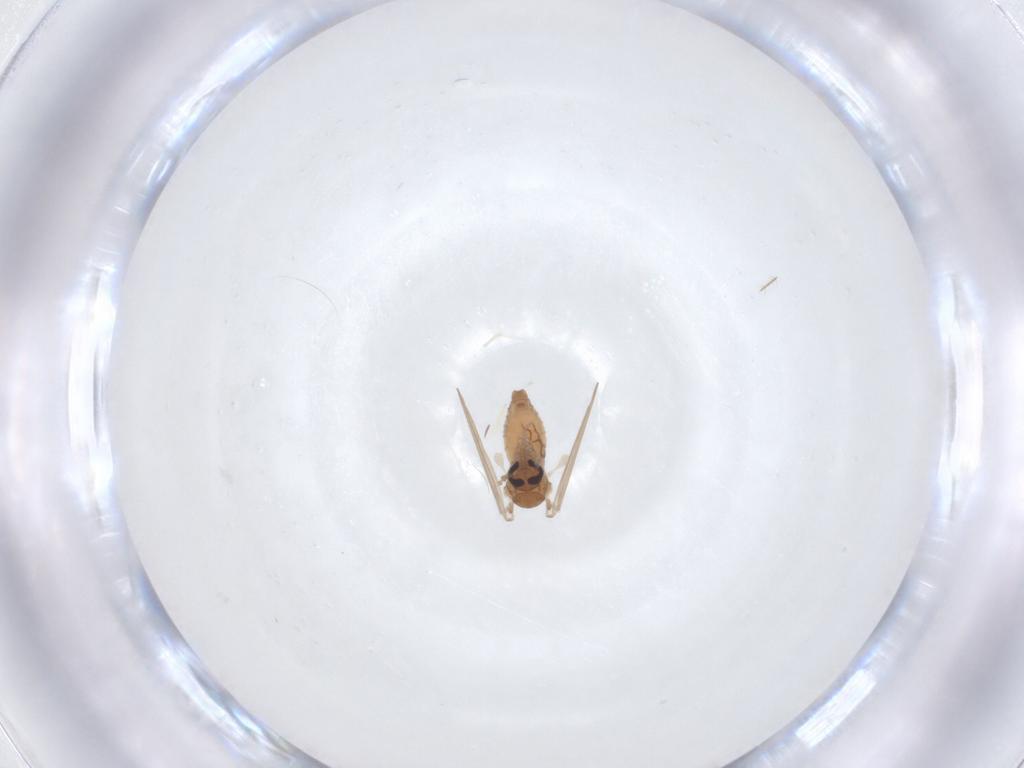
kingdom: Animalia
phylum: Arthropoda
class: Insecta
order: Diptera
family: Psychodidae
